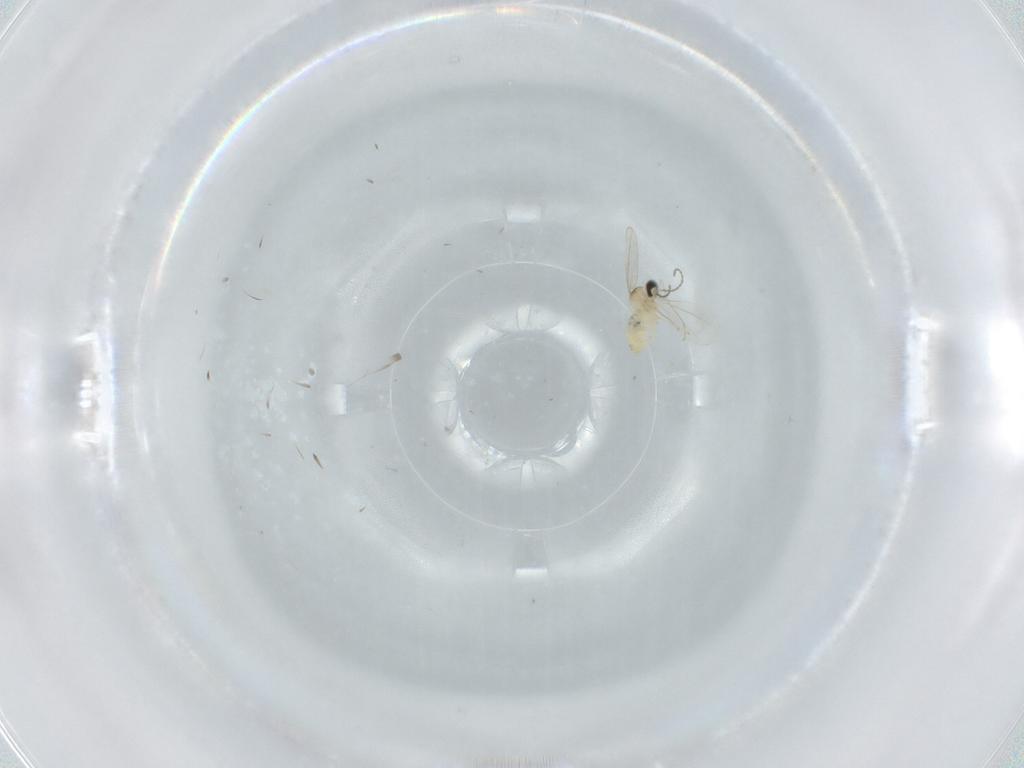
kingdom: Animalia
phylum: Arthropoda
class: Insecta
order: Diptera
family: Cecidomyiidae
